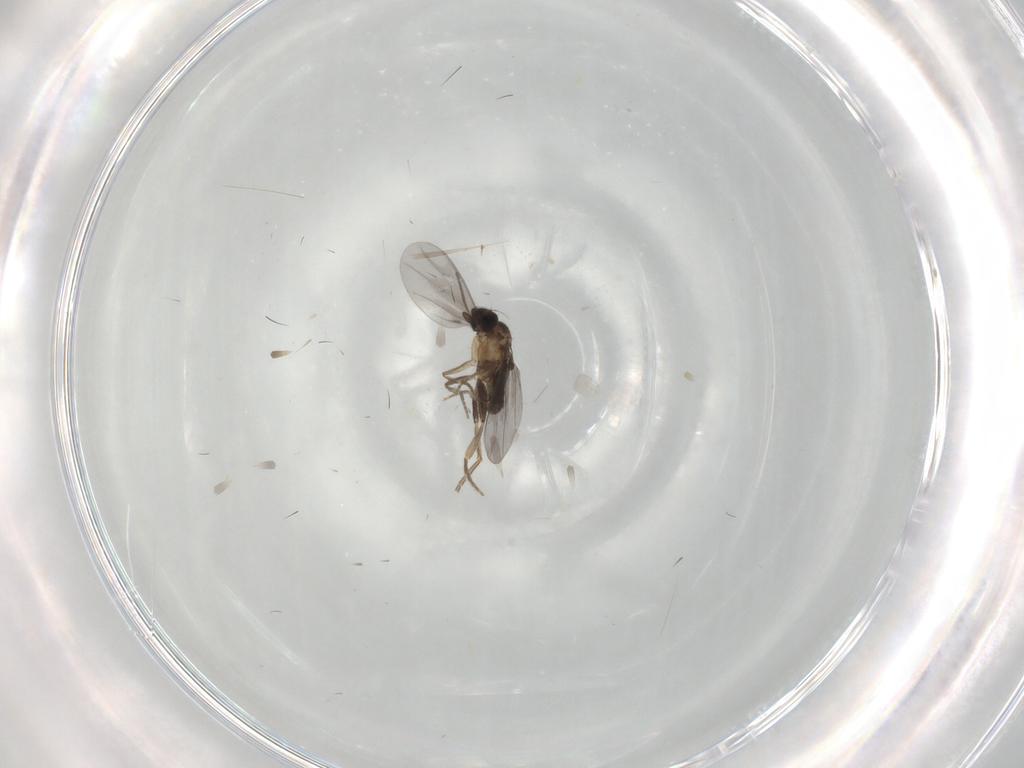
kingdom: Animalia
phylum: Arthropoda
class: Insecta
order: Diptera
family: Phoridae
